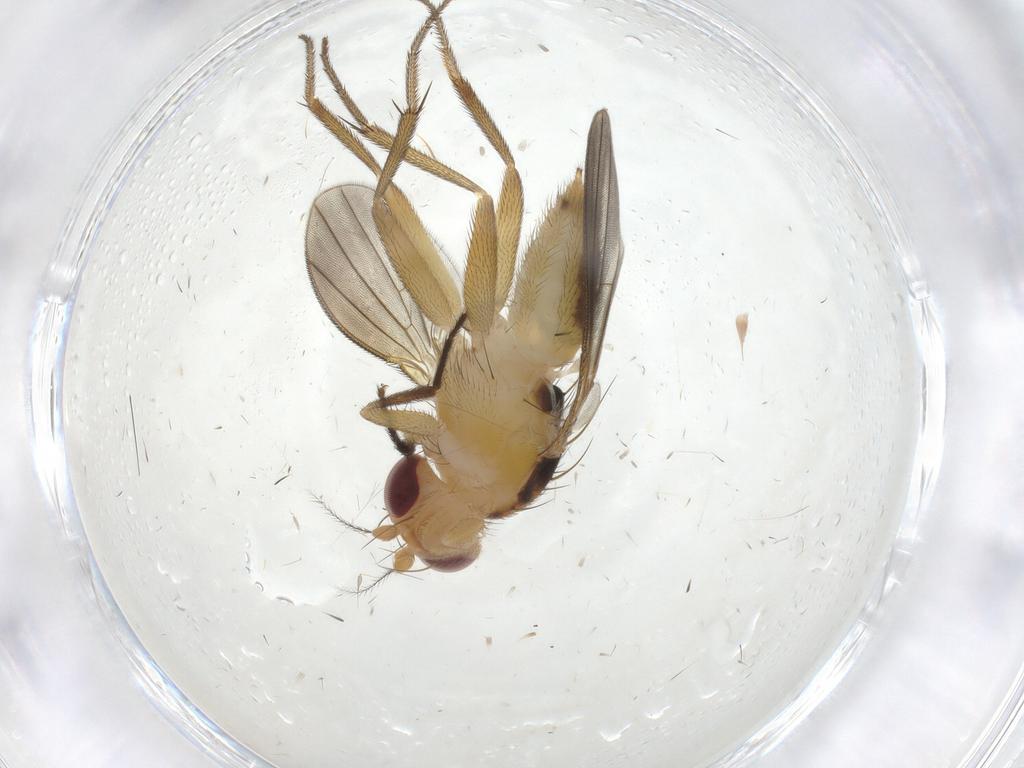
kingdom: Animalia
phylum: Arthropoda
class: Insecta
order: Diptera
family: Clusiidae
